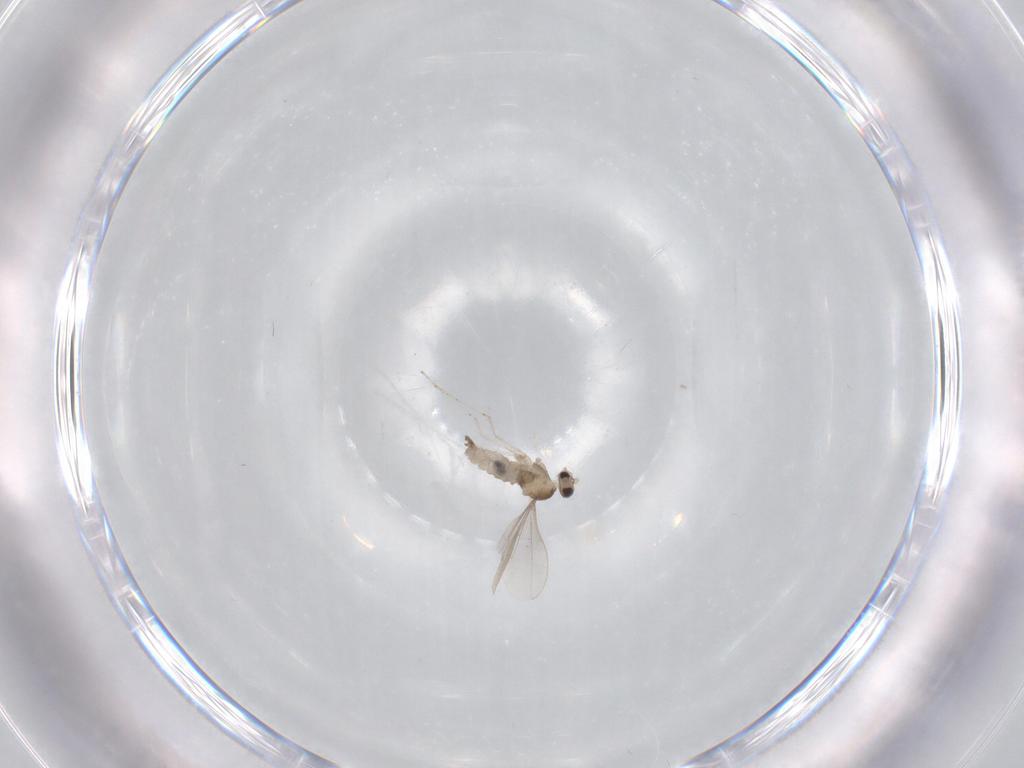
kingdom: Animalia
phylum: Arthropoda
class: Insecta
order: Diptera
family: Cecidomyiidae
